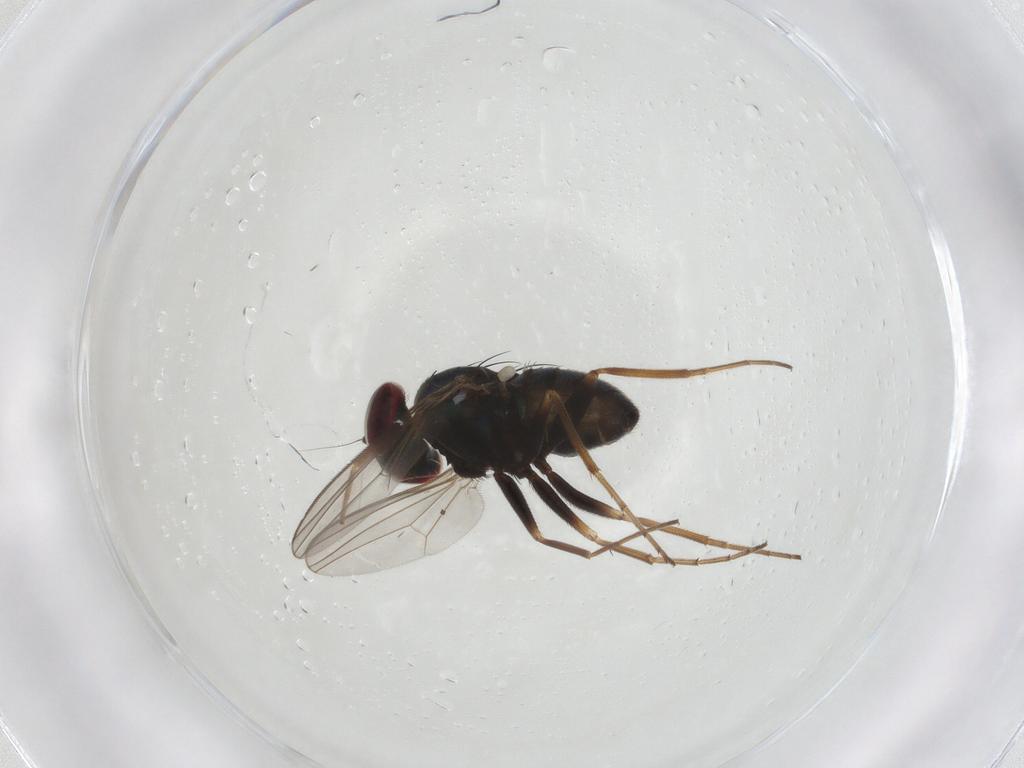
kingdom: Animalia
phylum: Arthropoda
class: Insecta
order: Diptera
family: Dolichopodidae
